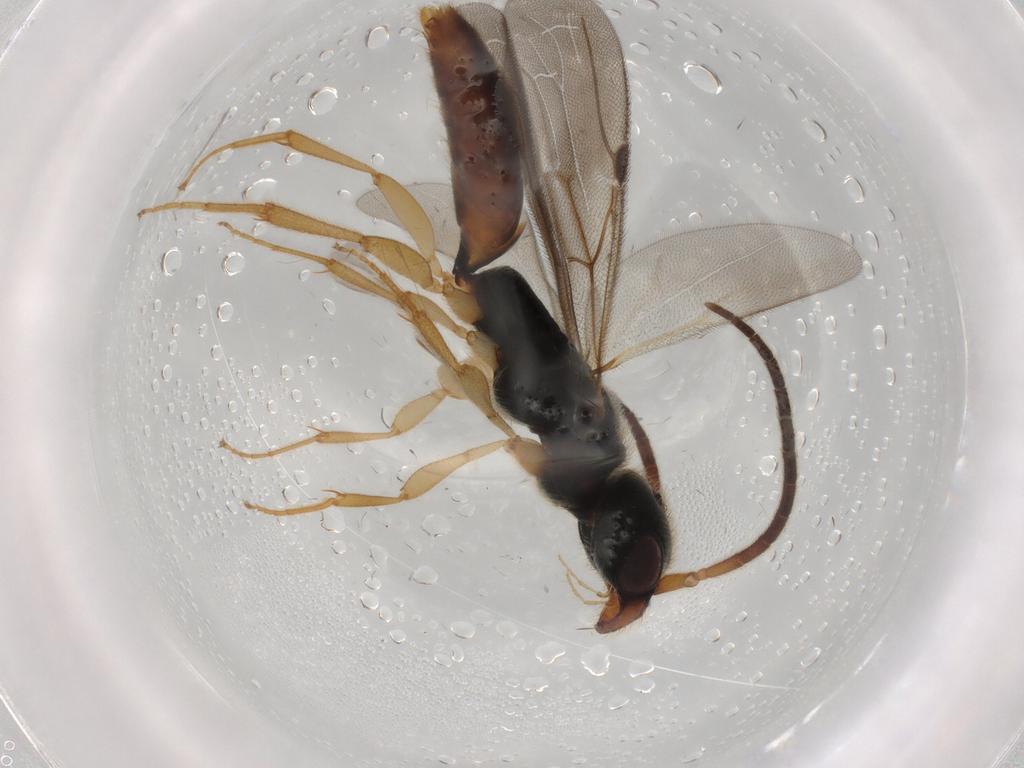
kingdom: Animalia
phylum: Arthropoda
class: Insecta
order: Hymenoptera
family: Bethylidae
